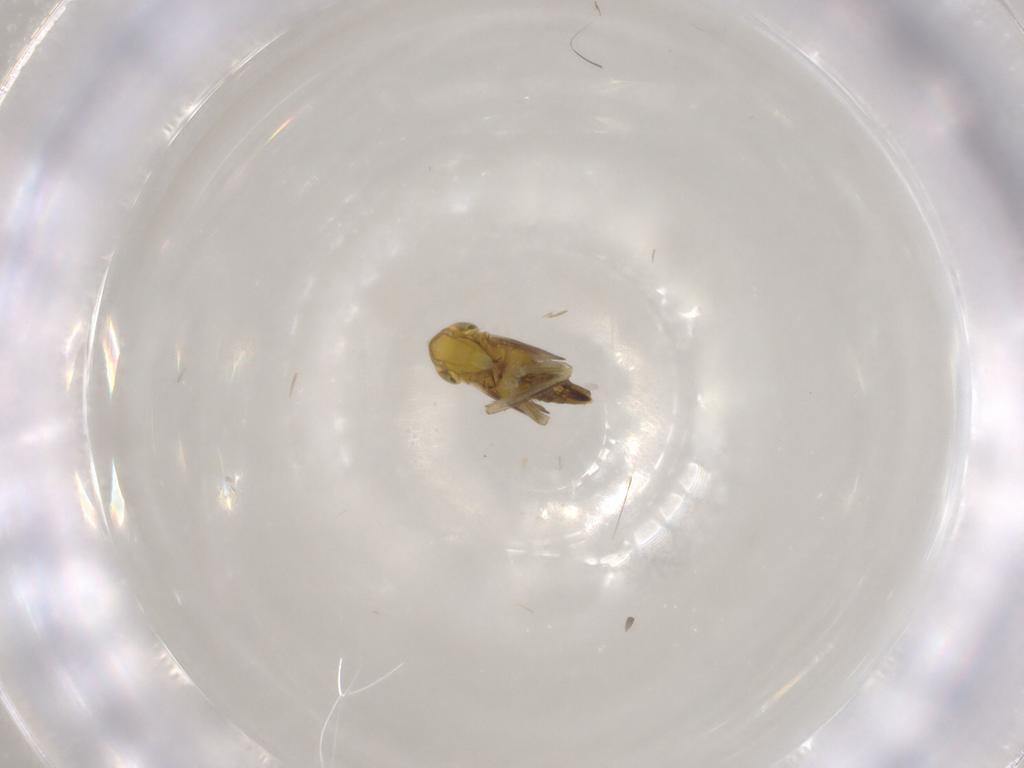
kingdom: Animalia
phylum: Arthropoda
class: Insecta
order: Hemiptera
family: Cicadellidae
